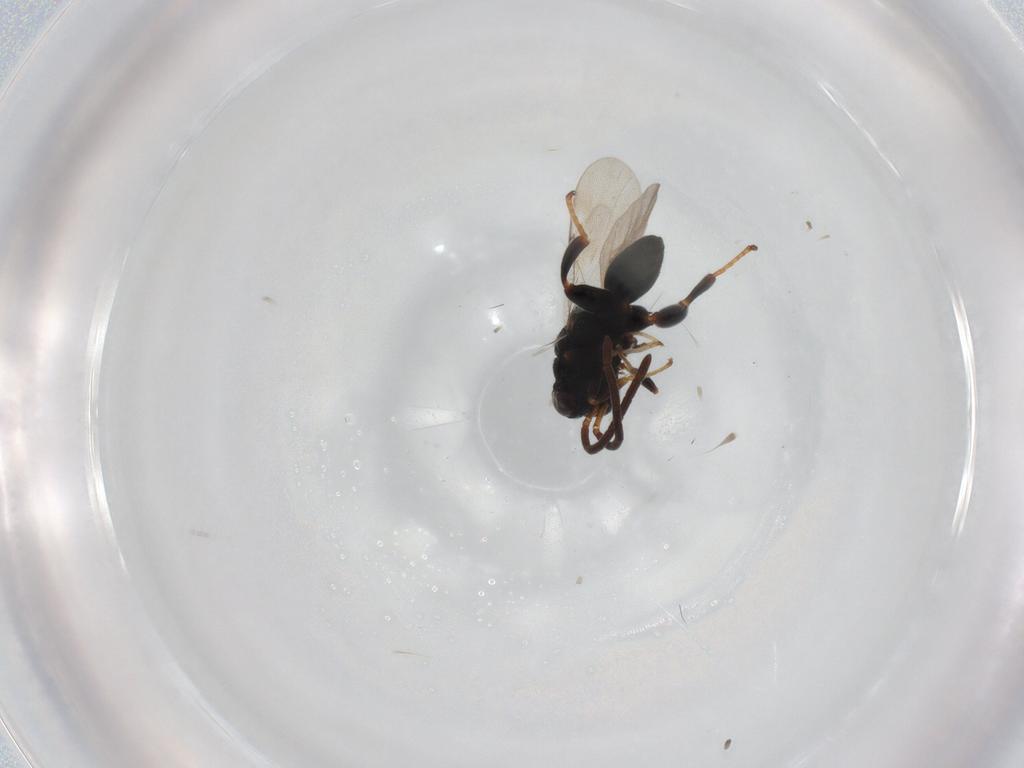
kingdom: Animalia
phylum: Arthropoda
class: Insecta
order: Hymenoptera
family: Chalcididae
